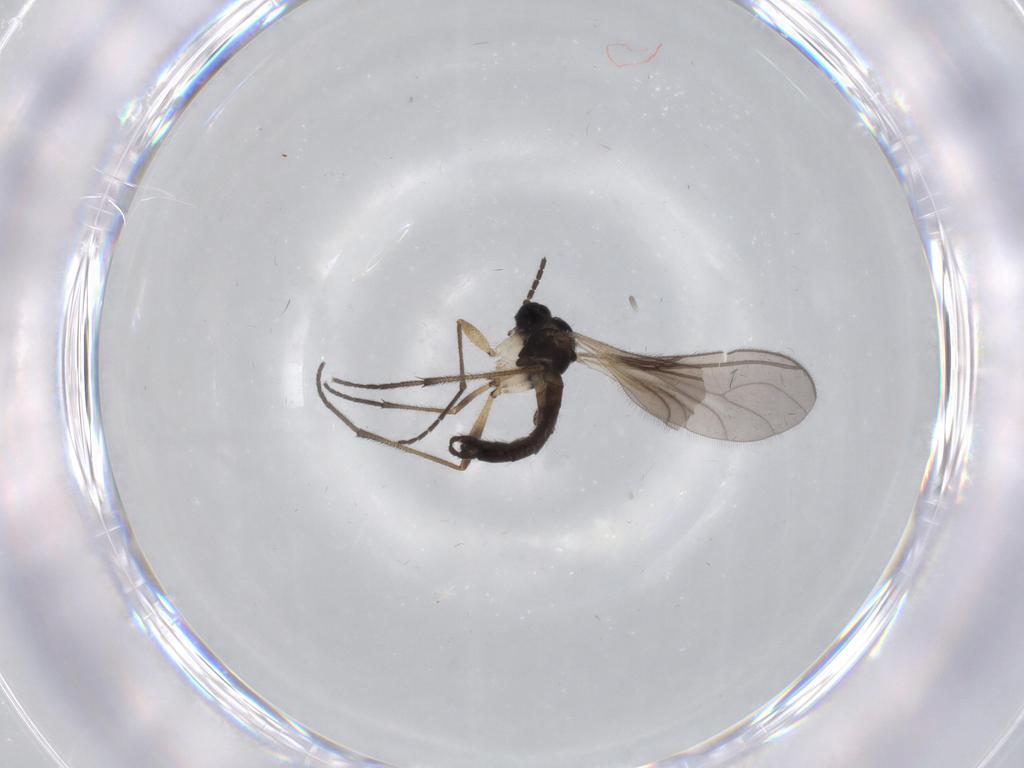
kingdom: Animalia
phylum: Arthropoda
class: Insecta
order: Diptera
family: Sciaridae
